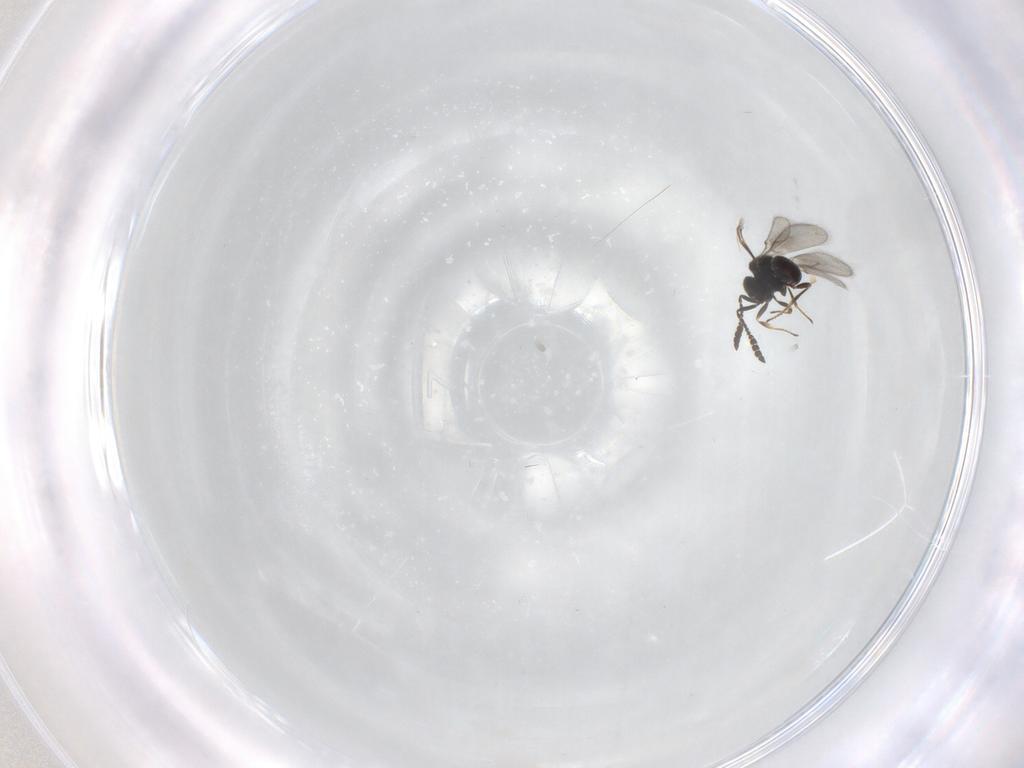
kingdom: Animalia
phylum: Arthropoda
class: Insecta
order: Hymenoptera
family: Scelionidae
